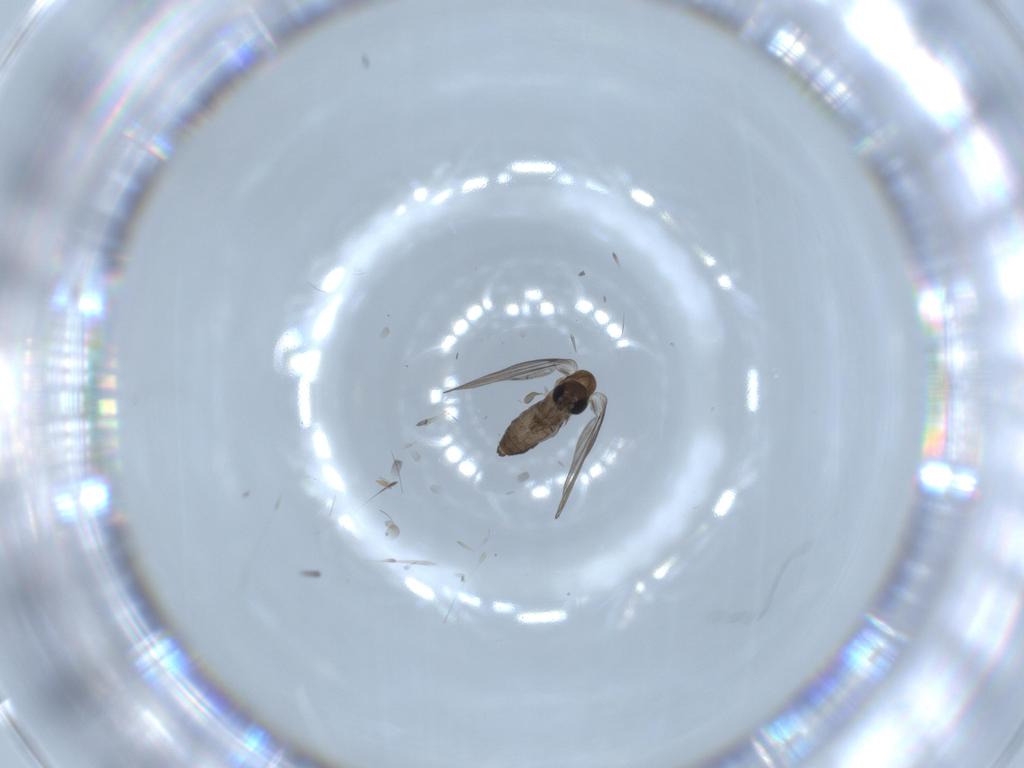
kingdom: Animalia
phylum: Arthropoda
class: Insecta
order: Diptera
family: Psychodidae
